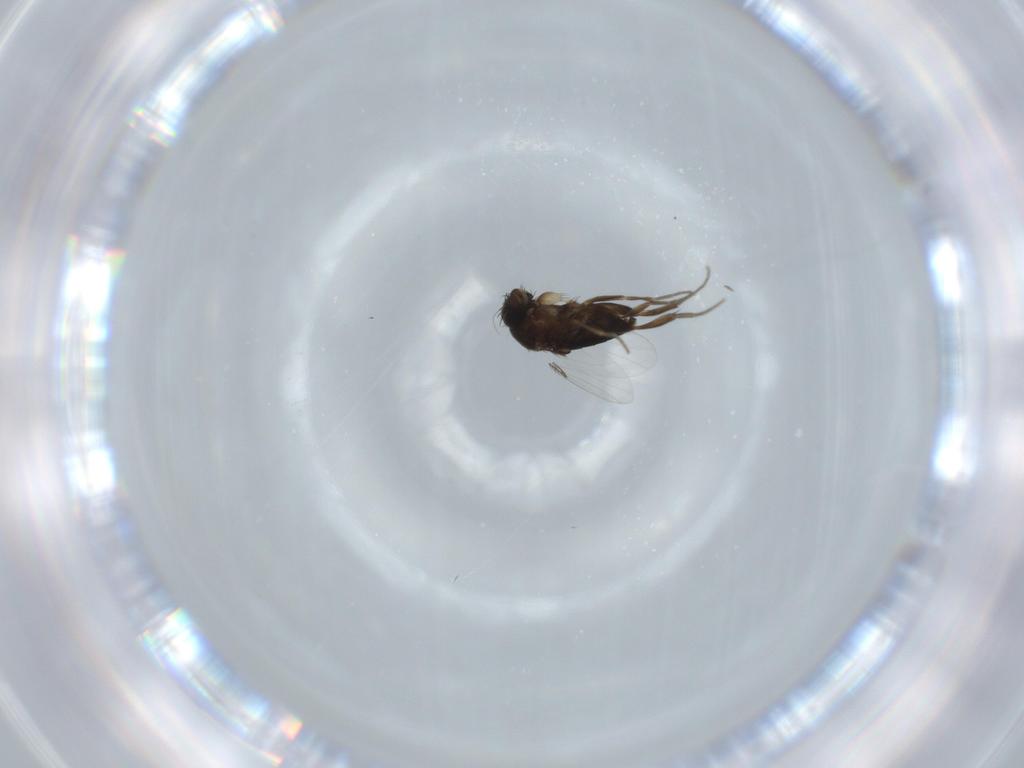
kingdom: Animalia
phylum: Arthropoda
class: Insecta
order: Diptera
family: Phoridae
